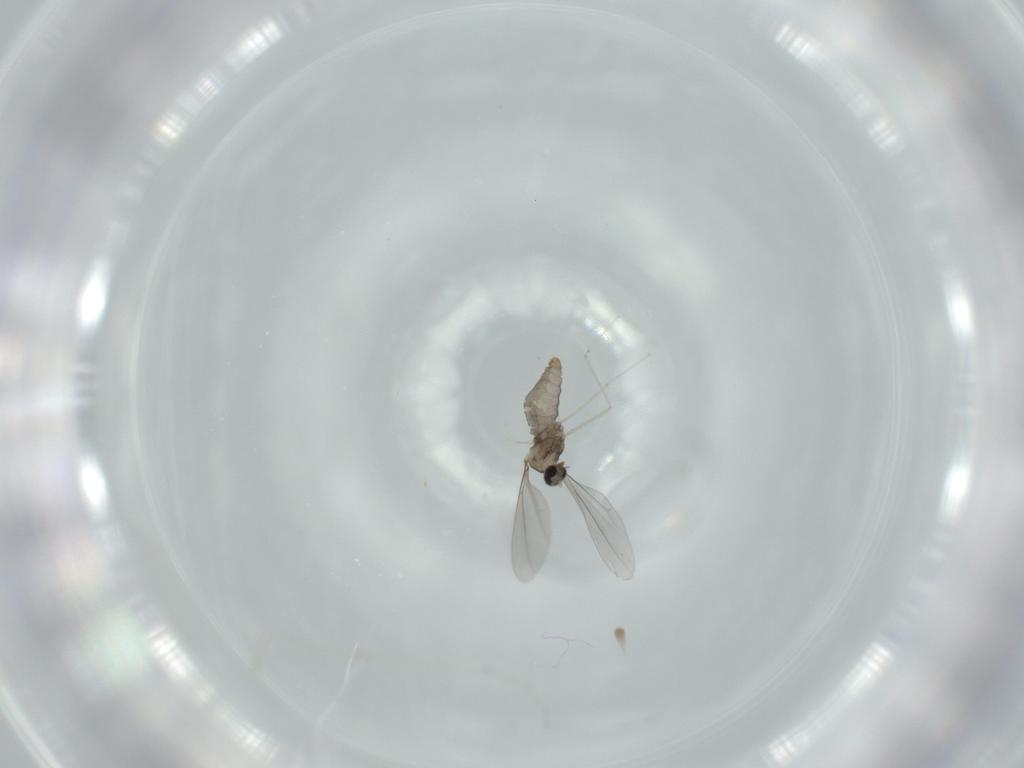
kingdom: Animalia
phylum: Arthropoda
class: Insecta
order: Diptera
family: Cecidomyiidae
